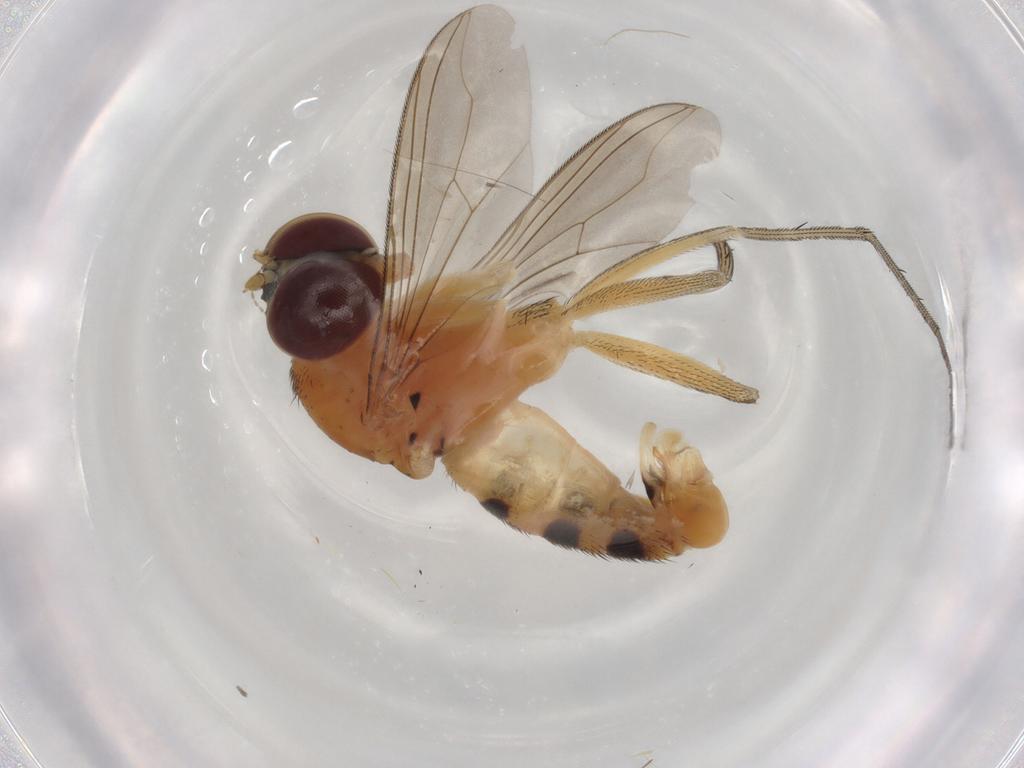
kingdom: Animalia
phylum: Arthropoda
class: Insecta
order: Diptera
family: Dolichopodidae
